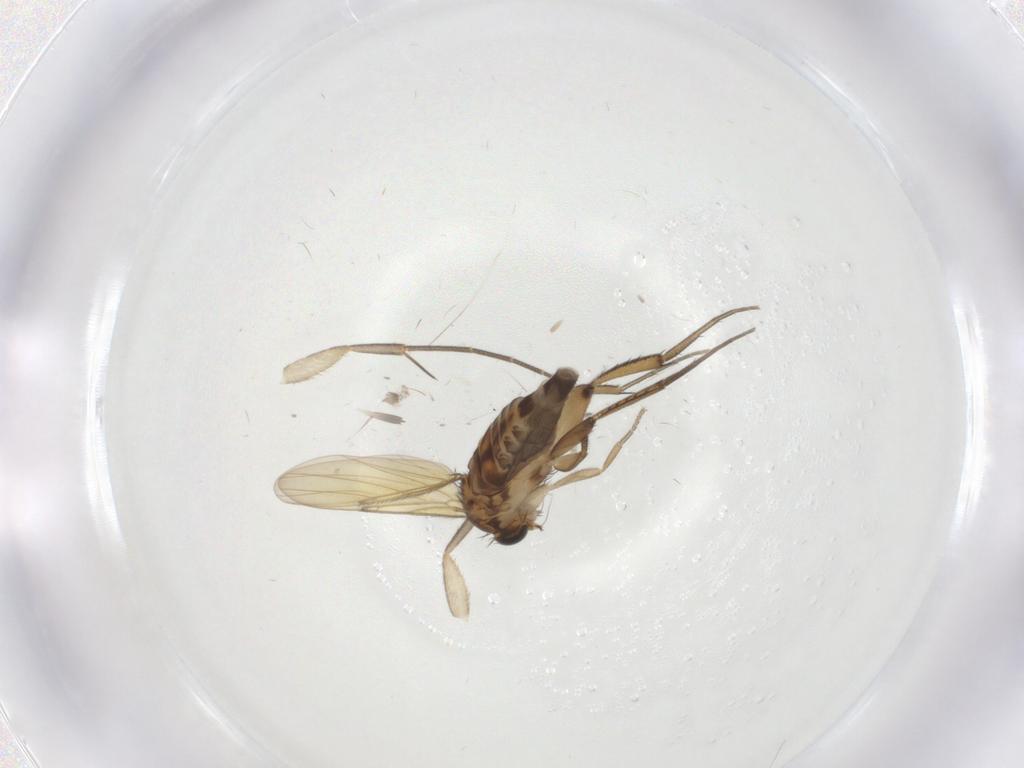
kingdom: Animalia
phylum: Arthropoda
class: Insecta
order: Diptera
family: Phoridae
